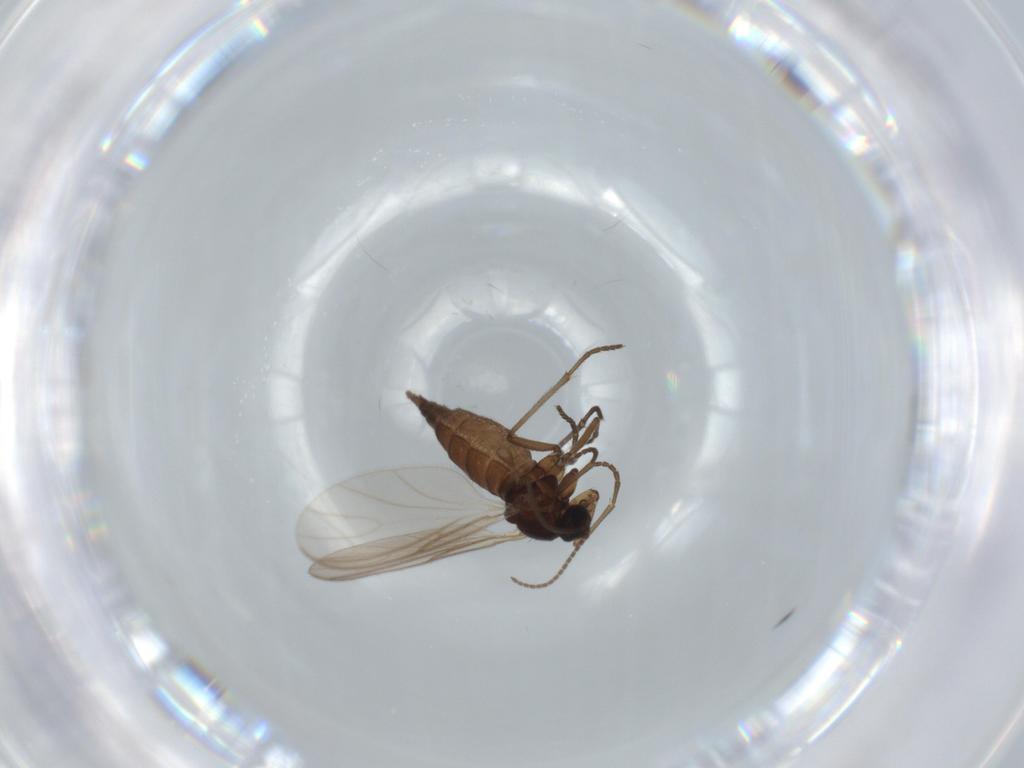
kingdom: Animalia
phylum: Arthropoda
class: Insecta
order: Diptera
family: Sciaridae
